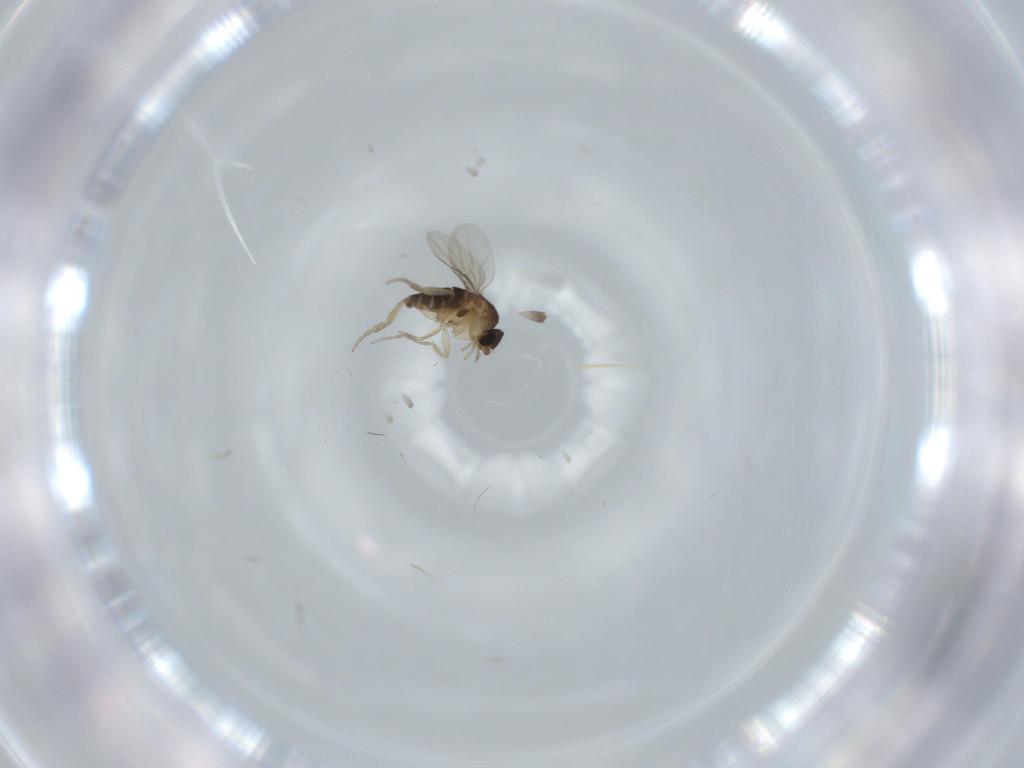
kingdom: Animalia
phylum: Arthropoda
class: Insecta
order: Diptera
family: Phoridae
